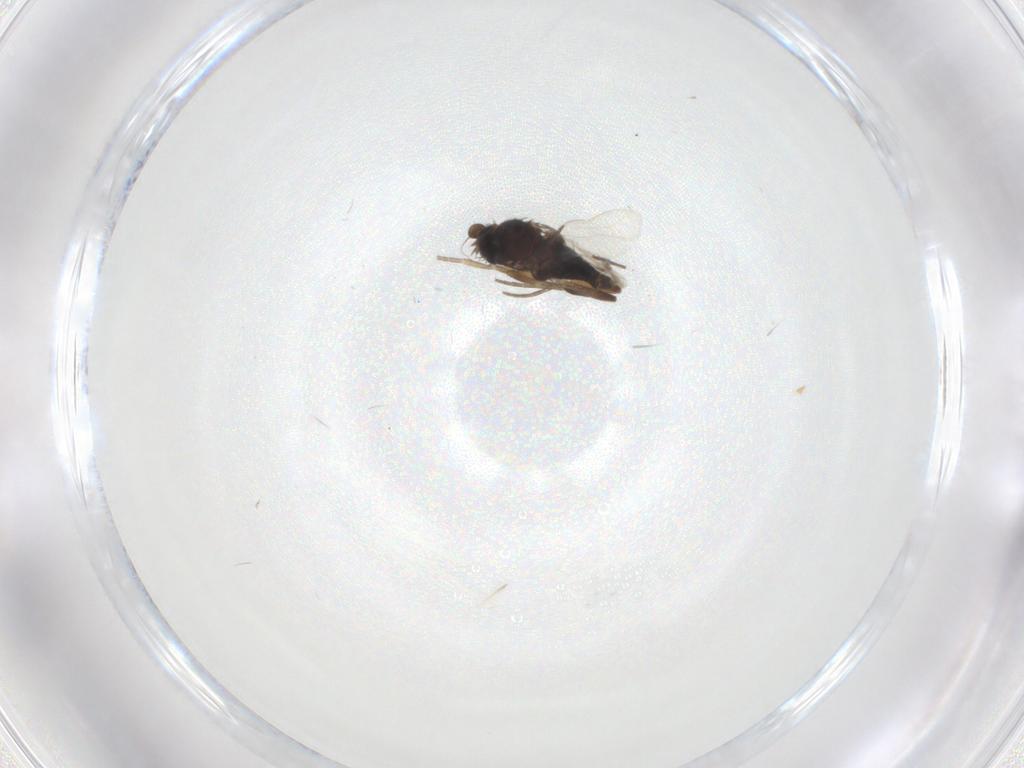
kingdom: Animalia
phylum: Arthropoda
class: Insecta
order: Diptera
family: Phoridae
